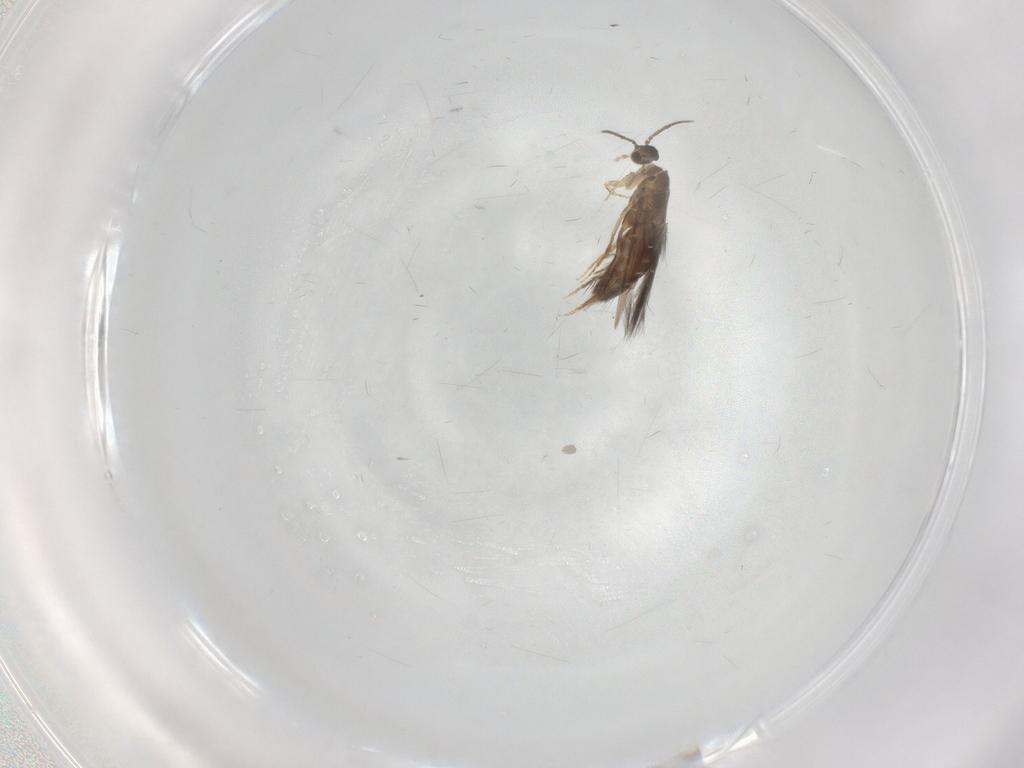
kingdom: Animalia
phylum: Arthropoda
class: Insecta
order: Trichoptera
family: Hydroptilidae
